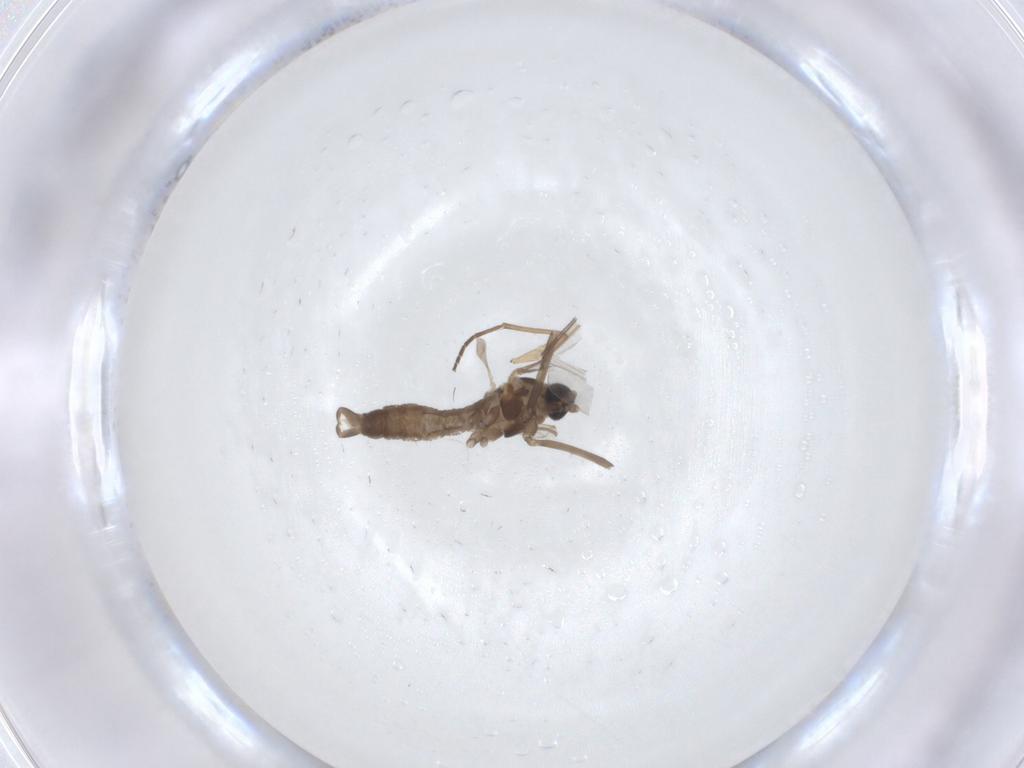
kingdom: Animalia
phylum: Arthropoda
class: Insecta
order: Diptera
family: Cecidomyiidae
